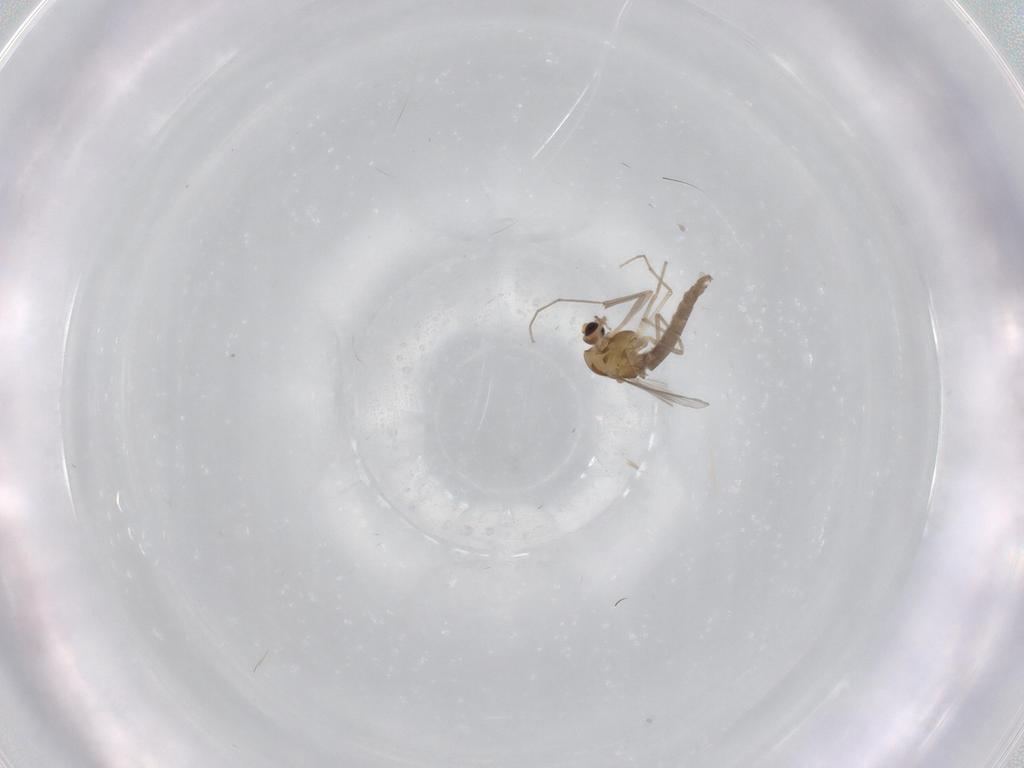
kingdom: Animalia
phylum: Arthropoda
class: Insecta
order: Diptera
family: Chironomidae
